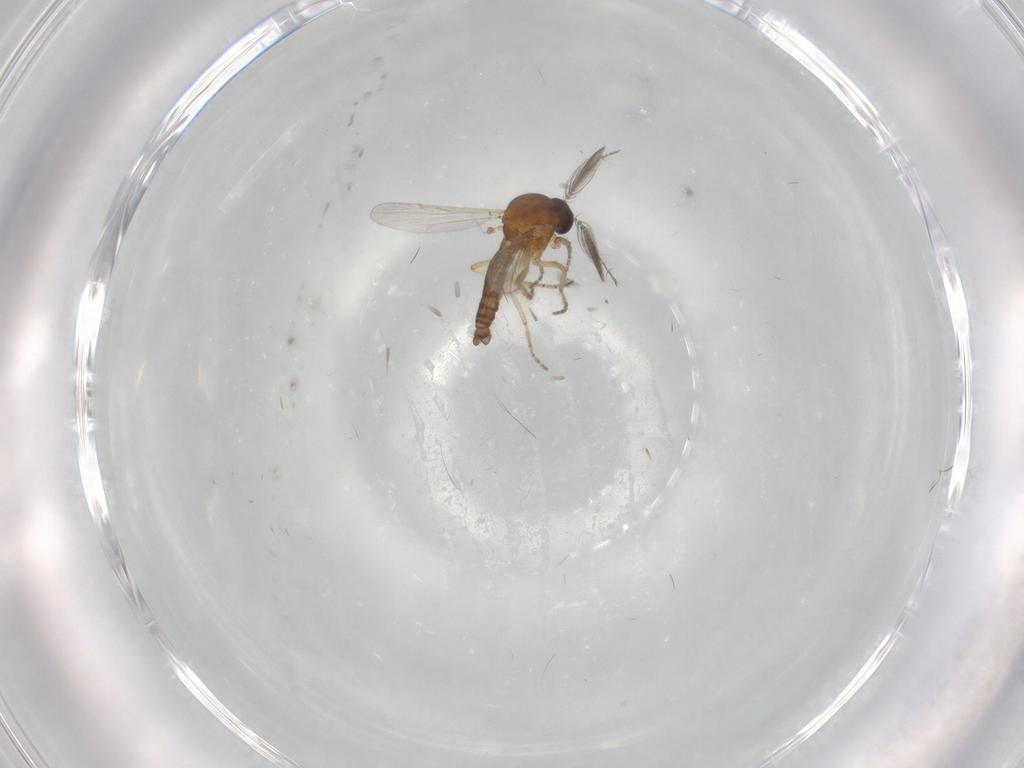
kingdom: Animalia
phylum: Arthropoda
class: Insecta
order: Diptera
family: Ceratopogonidae
